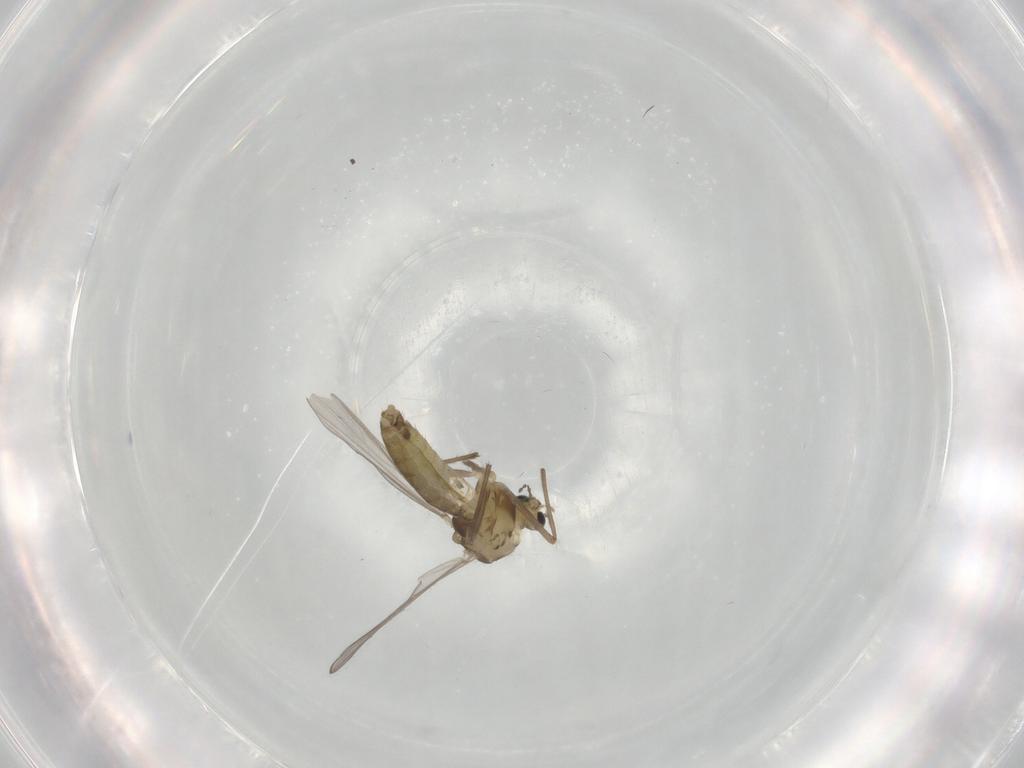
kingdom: Animalia
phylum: Arthropoda
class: Insecta
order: Diptera
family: Chironomidae
